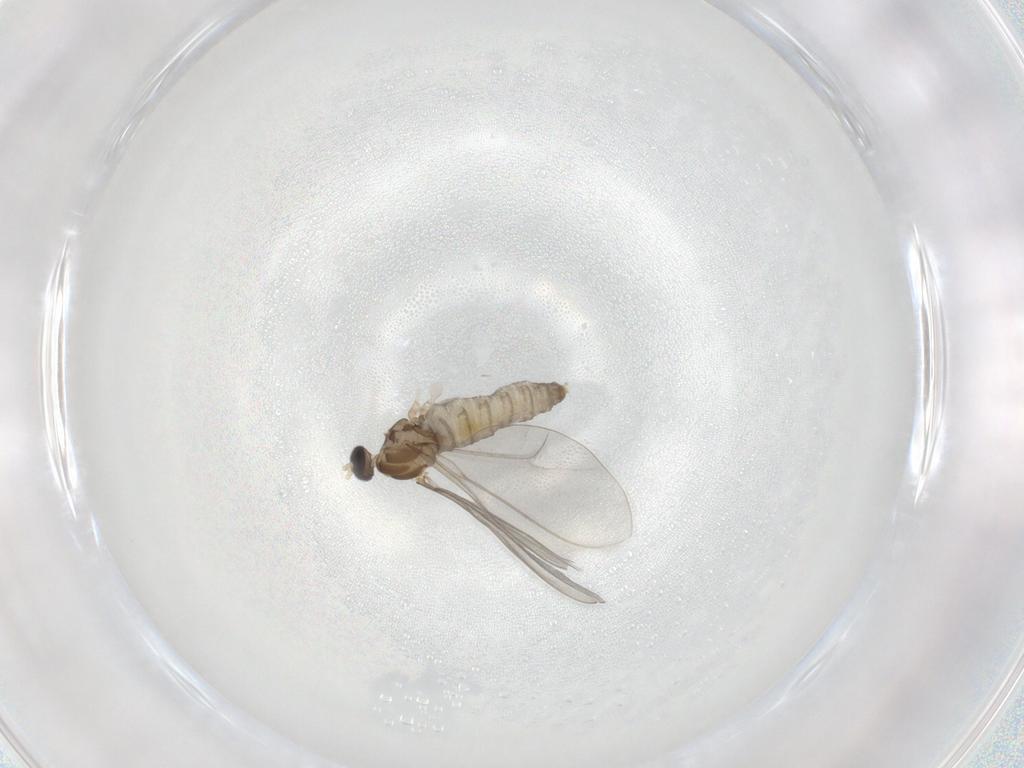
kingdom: Animalia
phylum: Arthropoda
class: Insecta
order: Diptera
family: Cecidomyiidae
